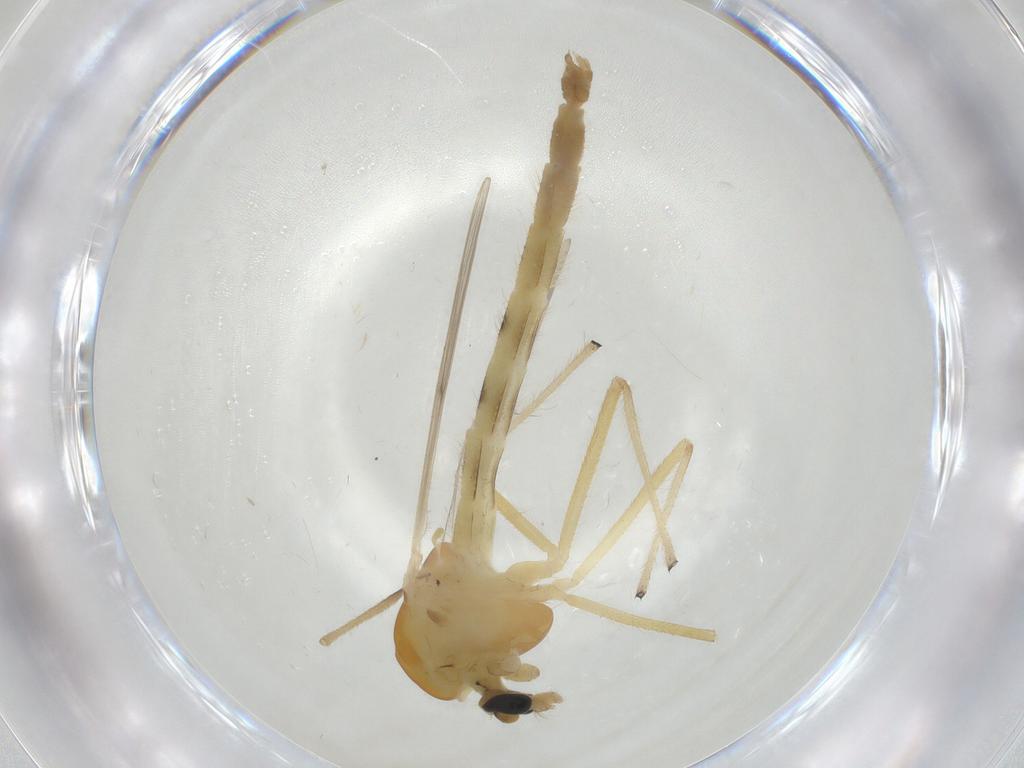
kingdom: Animalia
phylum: Arthropoda
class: Insecta
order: Diptera
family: Chironomidae
